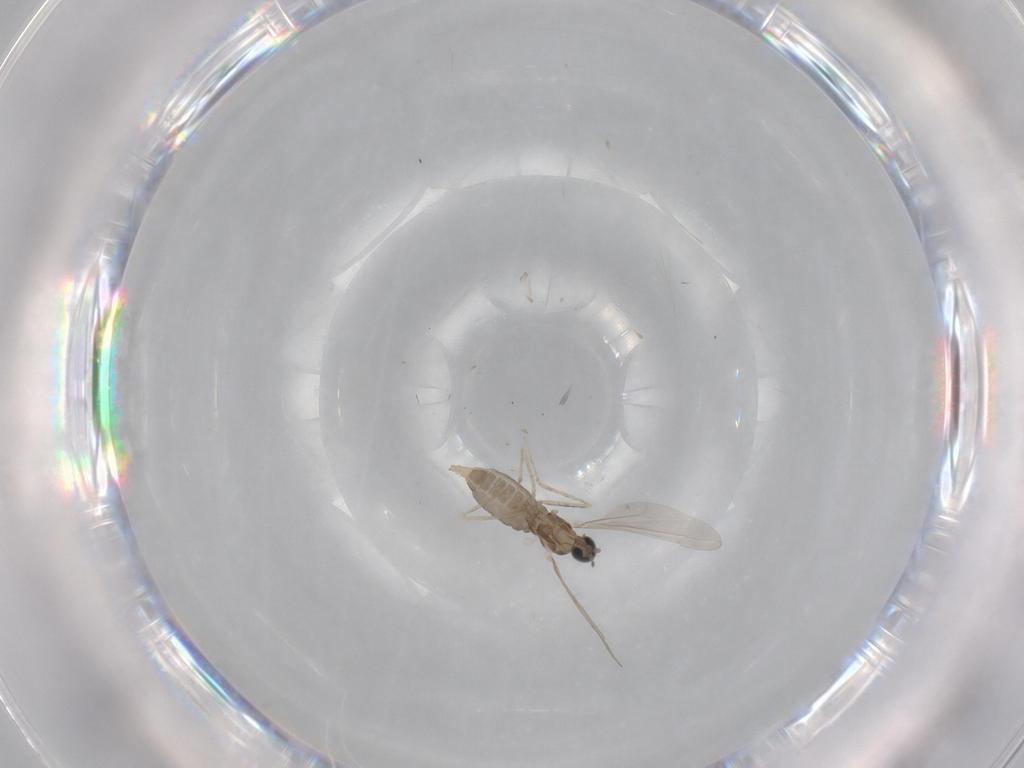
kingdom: Animalia
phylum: Arthropoda
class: Insecta
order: Diptera
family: Cecidomyiidae
